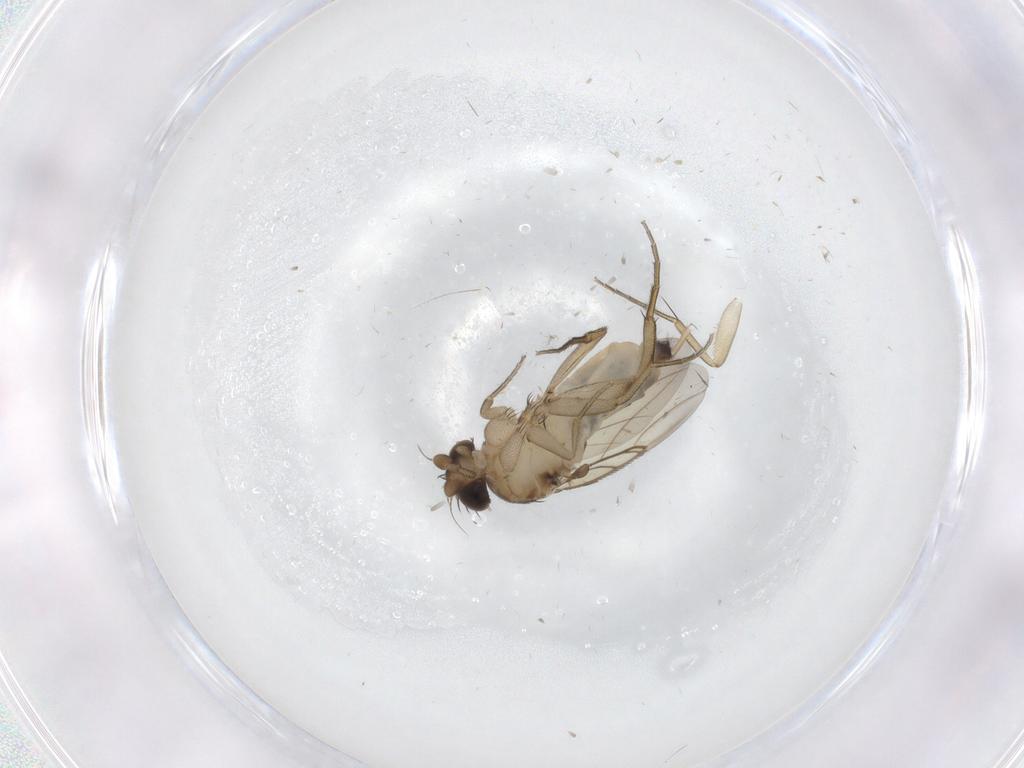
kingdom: Animalia
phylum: Arthropoda
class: Insecta
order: Diptera
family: Phoridae
